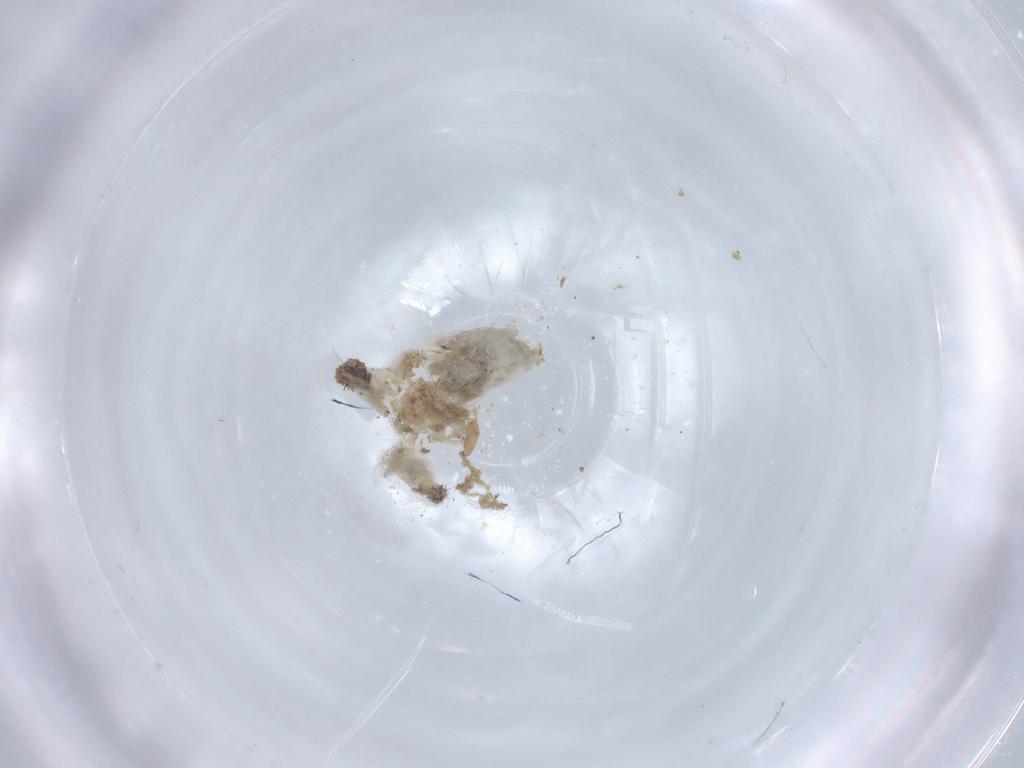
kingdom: Animalia
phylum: Arthropoda
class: Insecta
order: Diptera
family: Chironomidae
